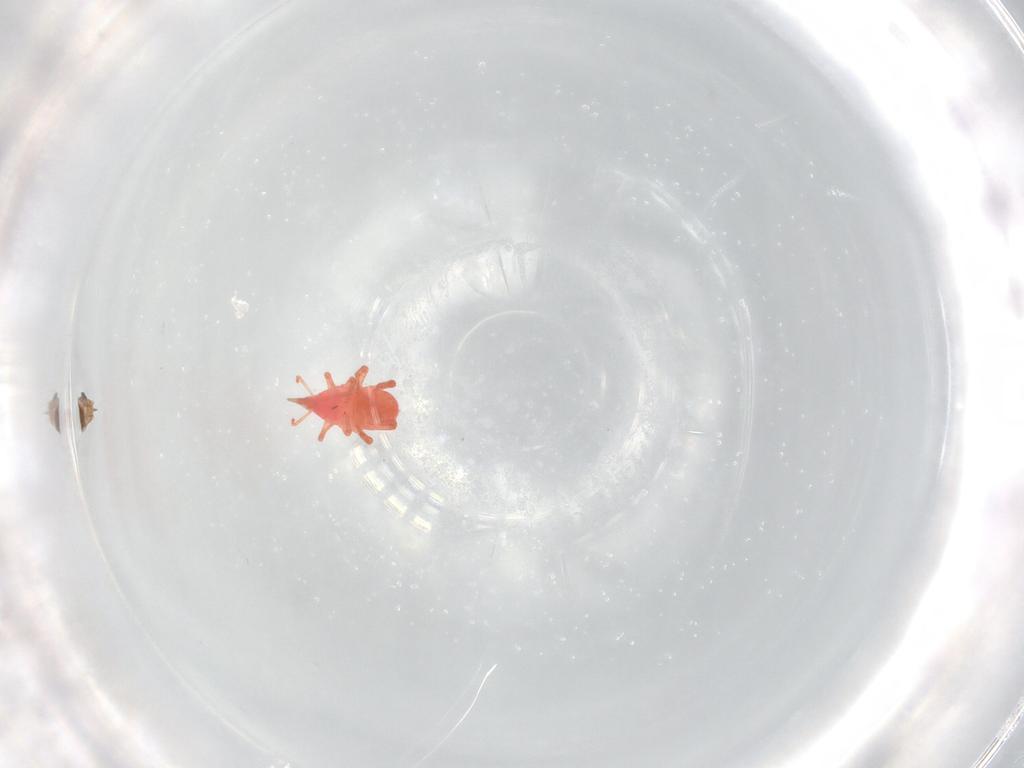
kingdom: Animalia
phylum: Arthropoda
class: Arachnida
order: Trombidiformes
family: Bdellidae
